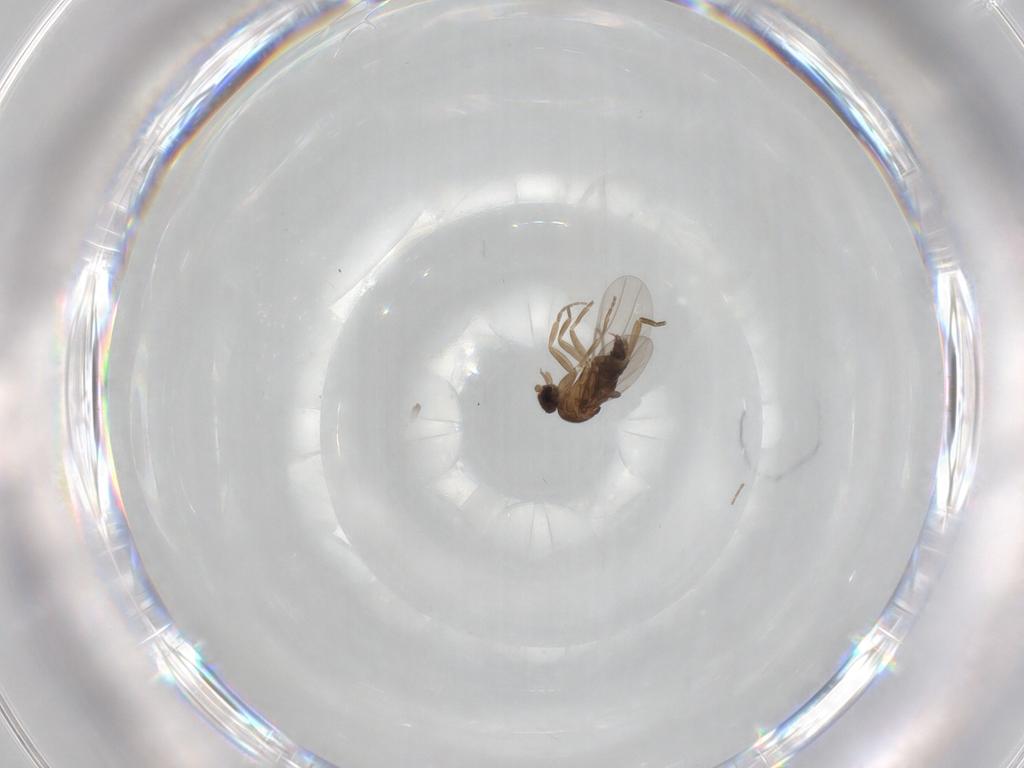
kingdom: Animalia
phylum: Arthropoda
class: Insecta
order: Diptera
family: Phoridae
